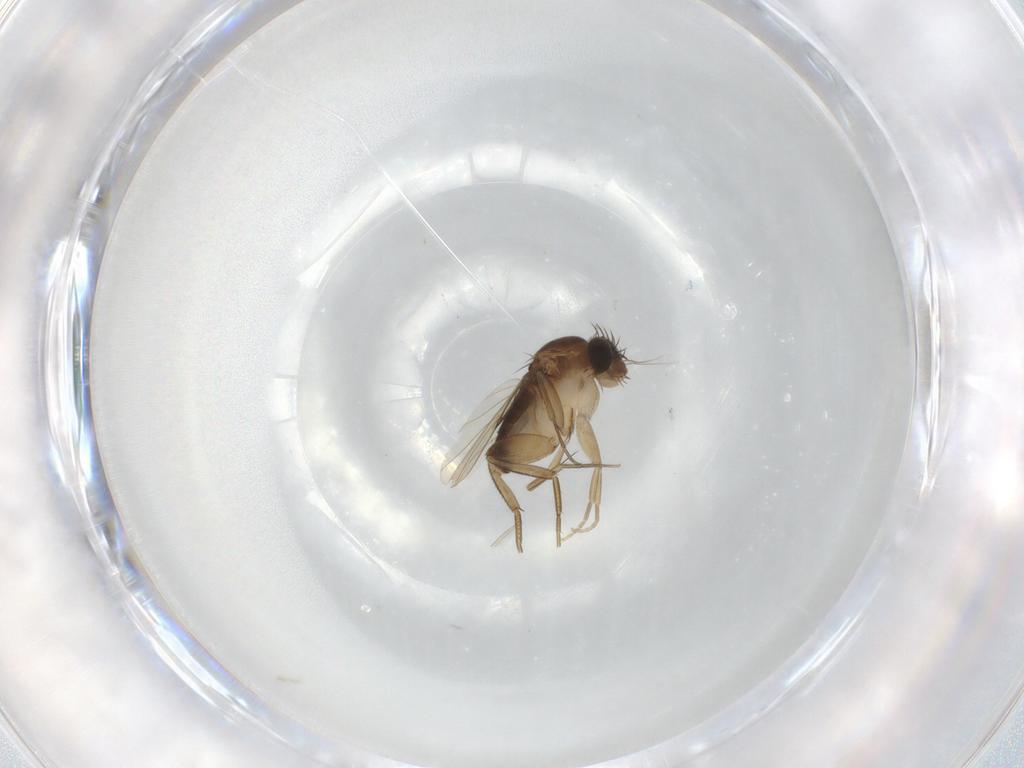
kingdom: Animalia
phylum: Arthropoda
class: Insecta
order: Diptera
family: Phoridae
